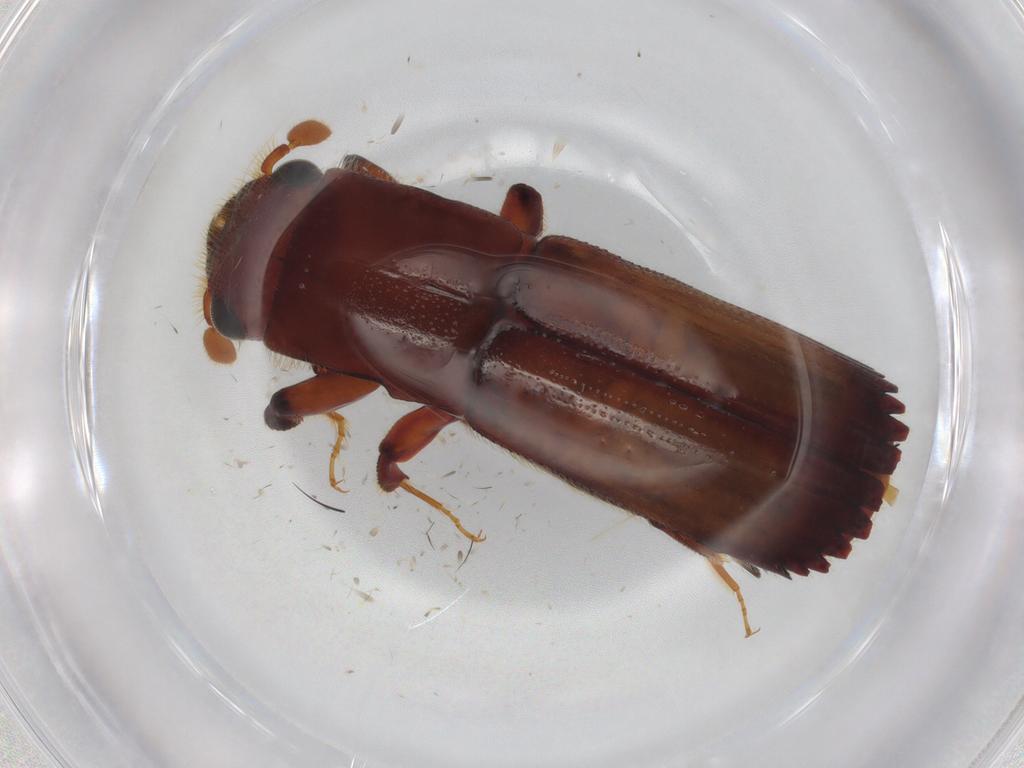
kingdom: Animalia
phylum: Arthropoda
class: Insecta
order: Coleoptera
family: Curculionidae
